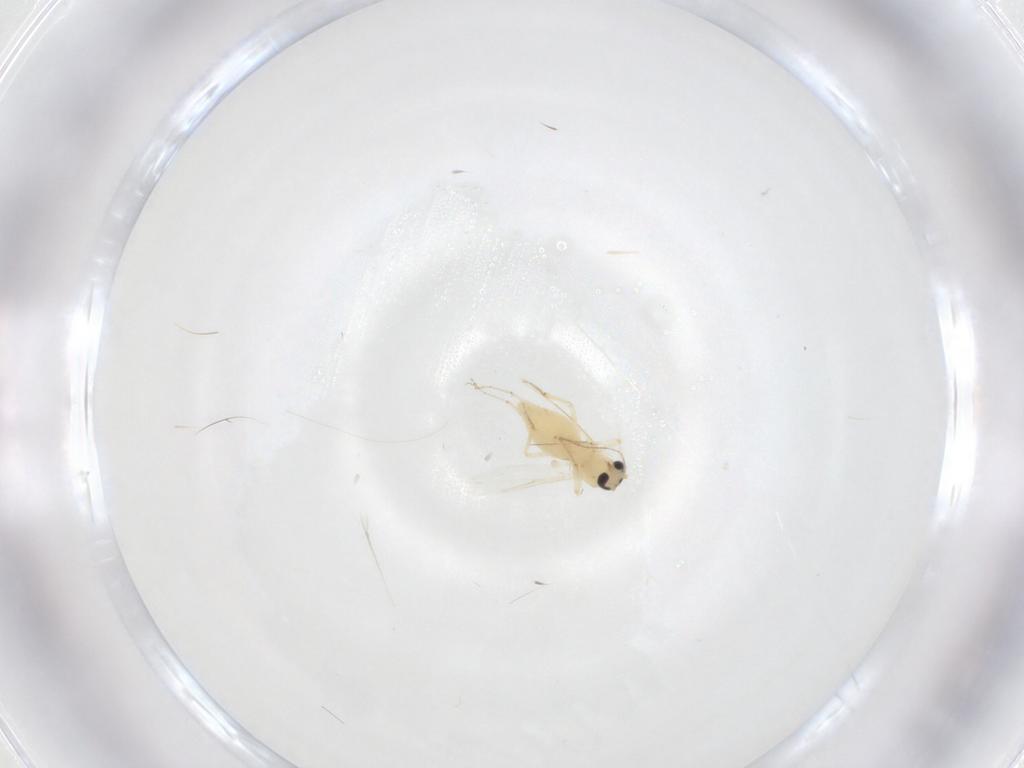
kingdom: Animalia
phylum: Arthropoda
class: Insecta
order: Diptera
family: Ceratopogonidae
